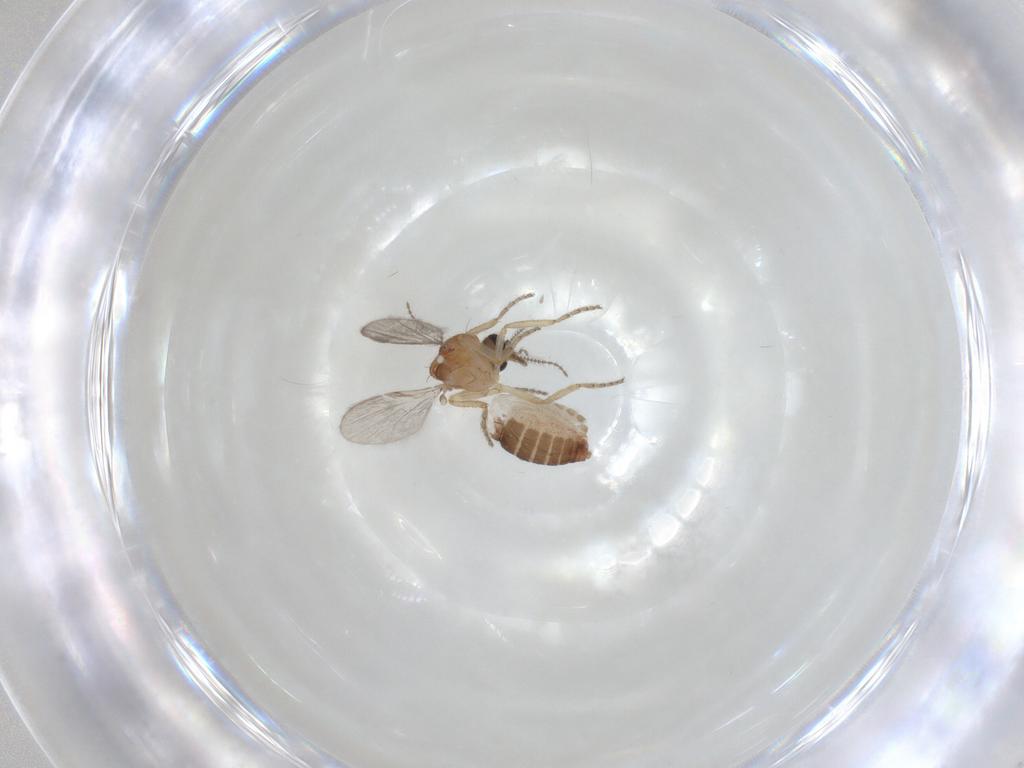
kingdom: Animalia
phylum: Arthropoda
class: Insecta
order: Diptera
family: Ceratopogonidae
